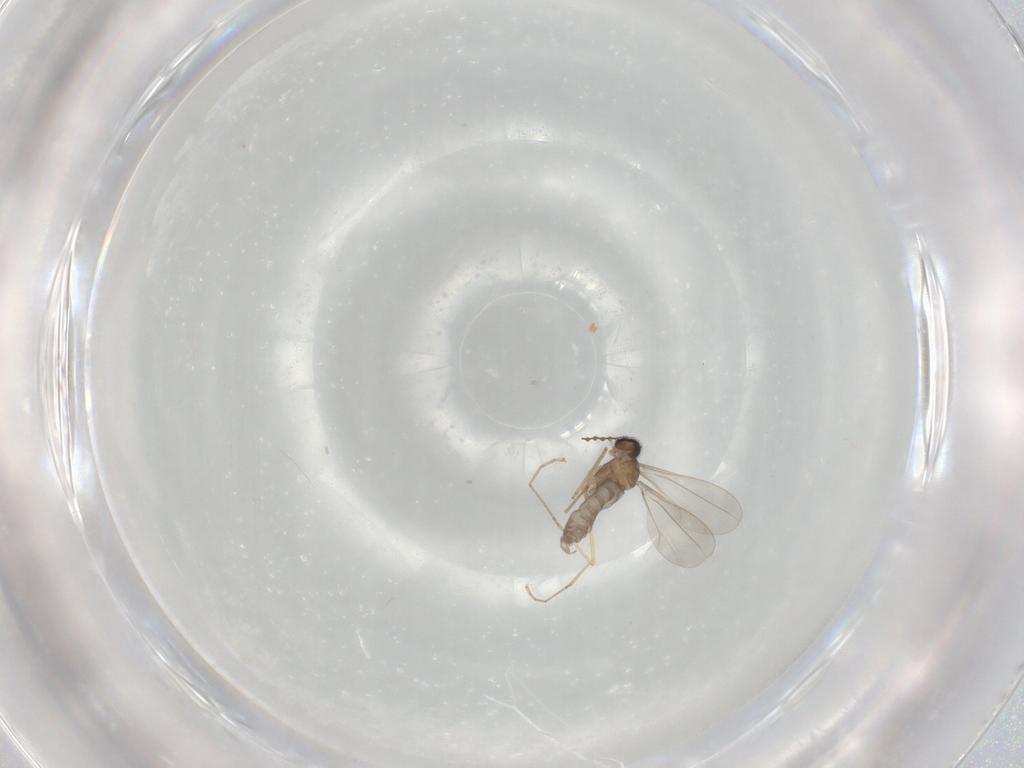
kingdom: Animalia
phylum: Arthropoda
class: Insecta
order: Diptera
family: Cecidomyiidae
